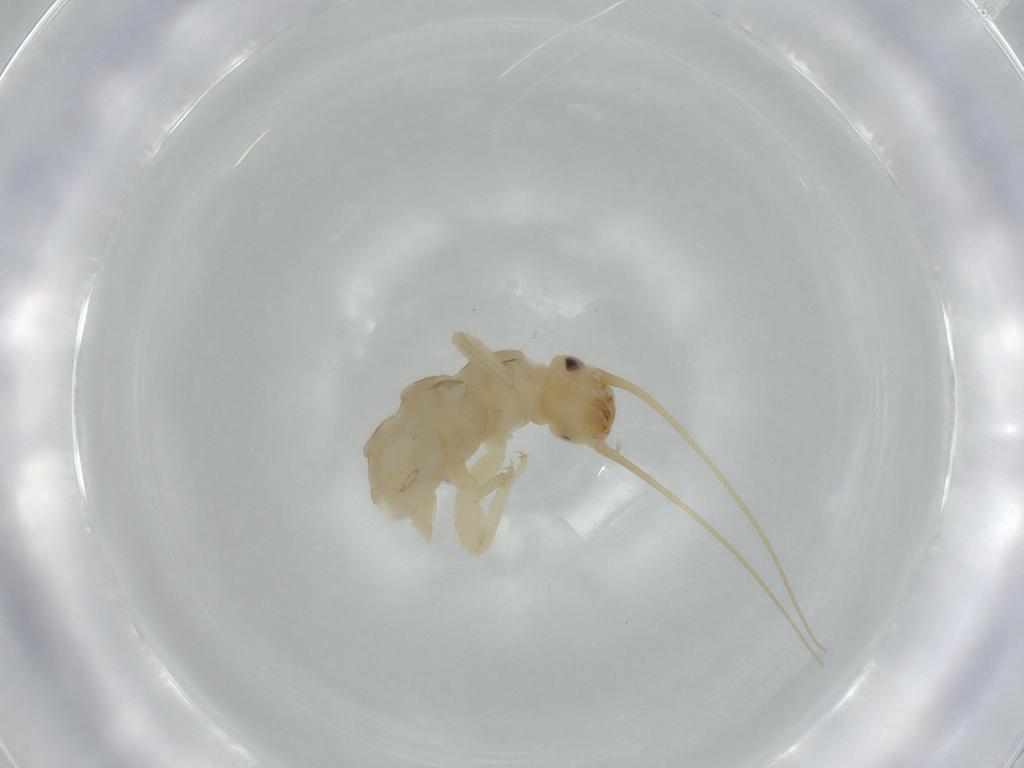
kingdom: Animalia
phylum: Arthropoda
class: Insecta
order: Plecoptera
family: Leuctridae
